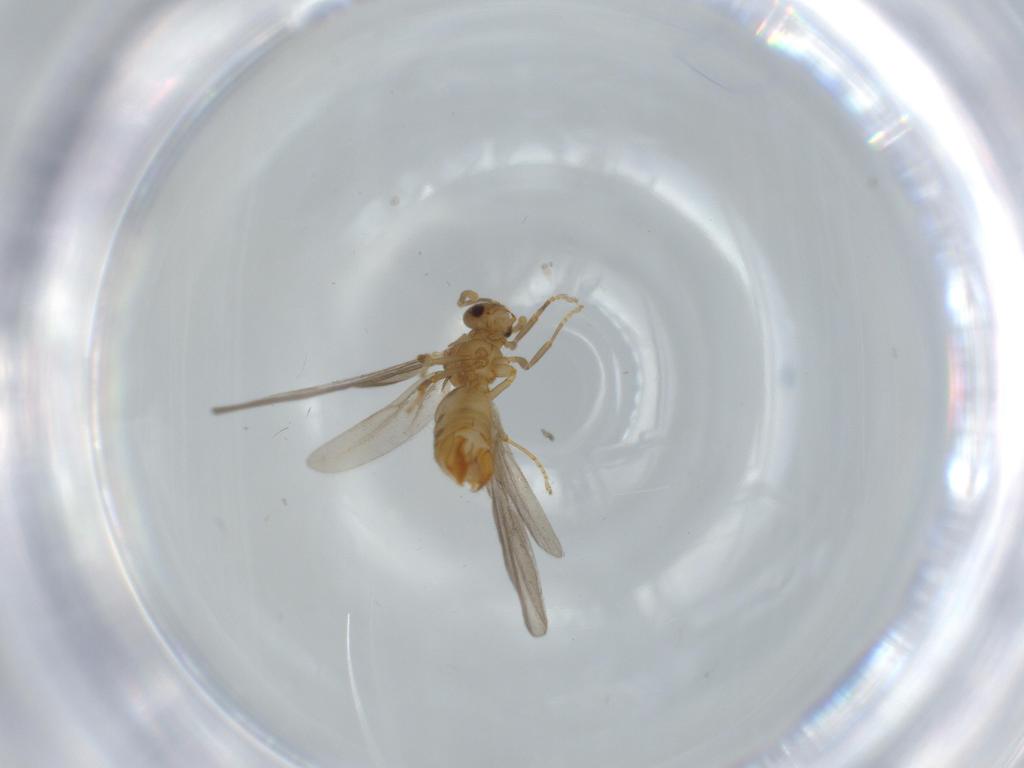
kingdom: Animalia
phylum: Arthropoda
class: Insecta
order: Hymenoptera
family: Formicidae
